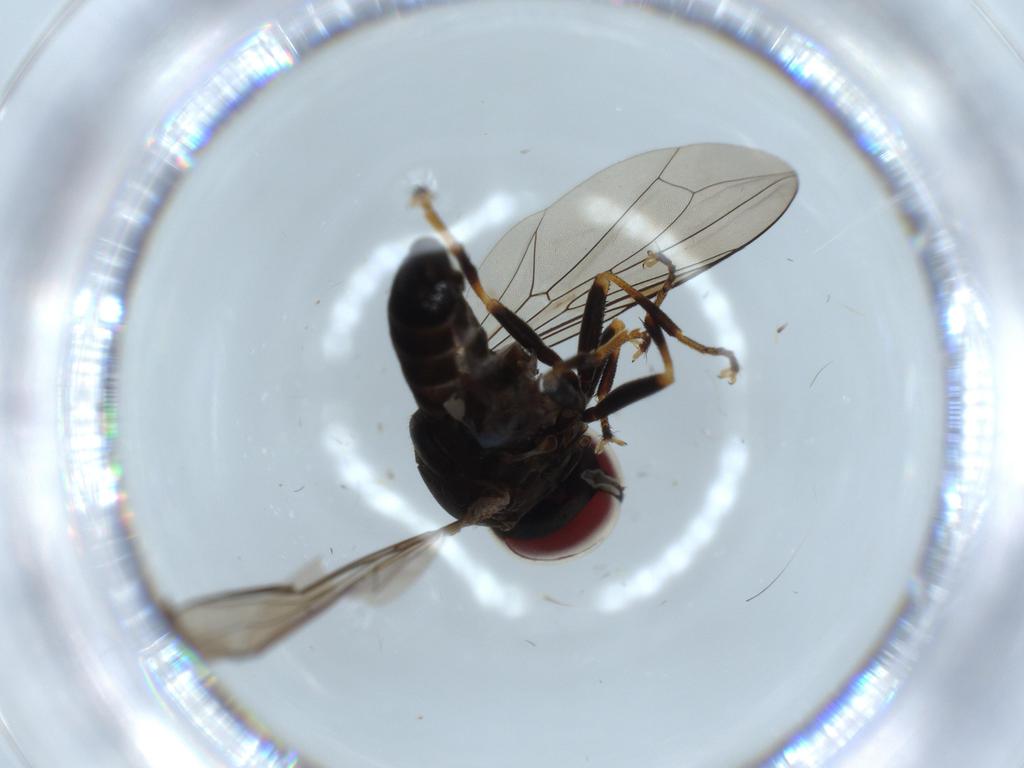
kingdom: Animalia
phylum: Arthropoda
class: Insecta
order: Diptera
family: Pipunculidae
